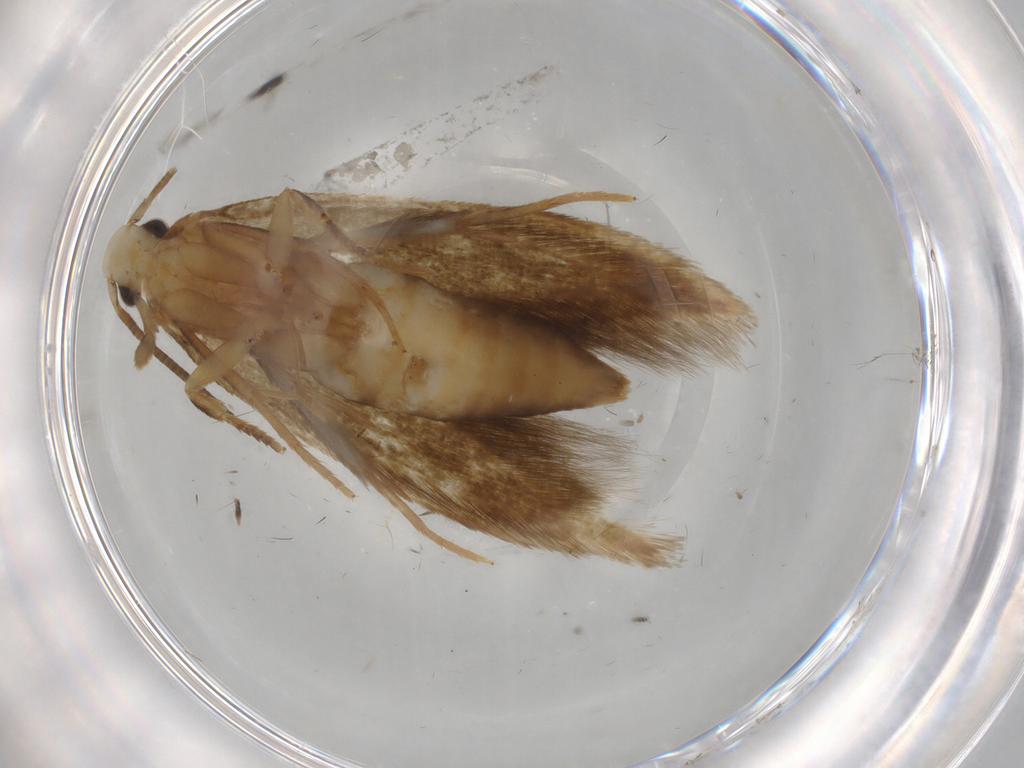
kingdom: Animalia
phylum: Arthropoda
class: Insecta
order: Lepidoptera
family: Tineidae
